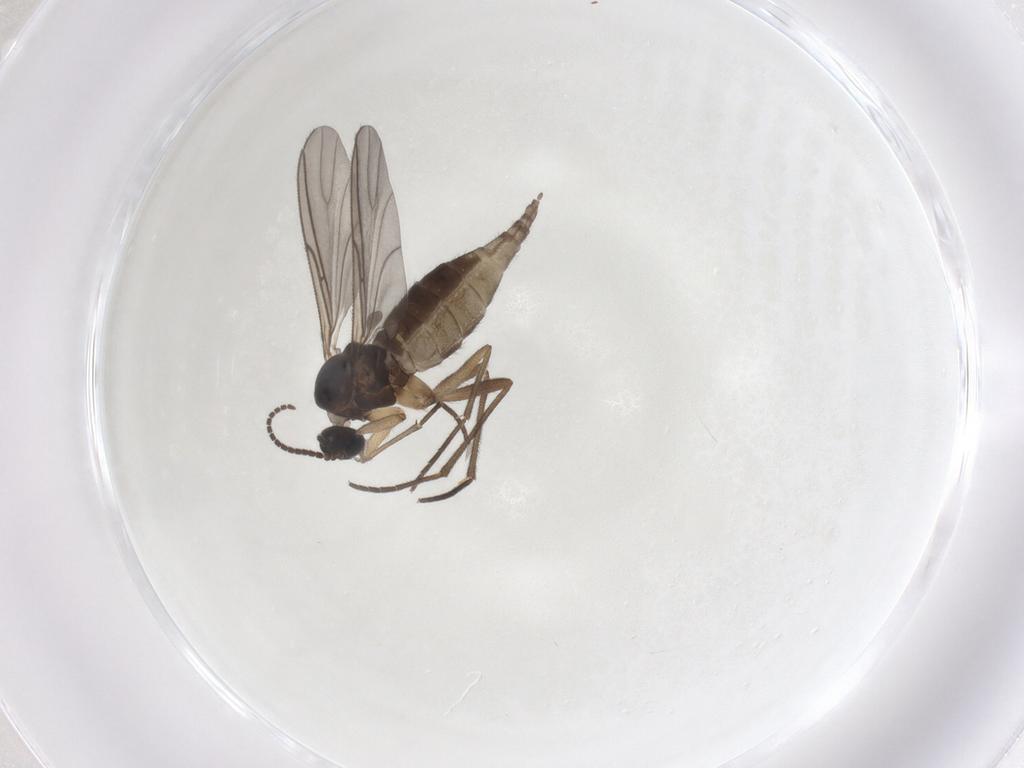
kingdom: Animalia
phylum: Arthropoda
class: Insecta
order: Diptera
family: Sciaridae
